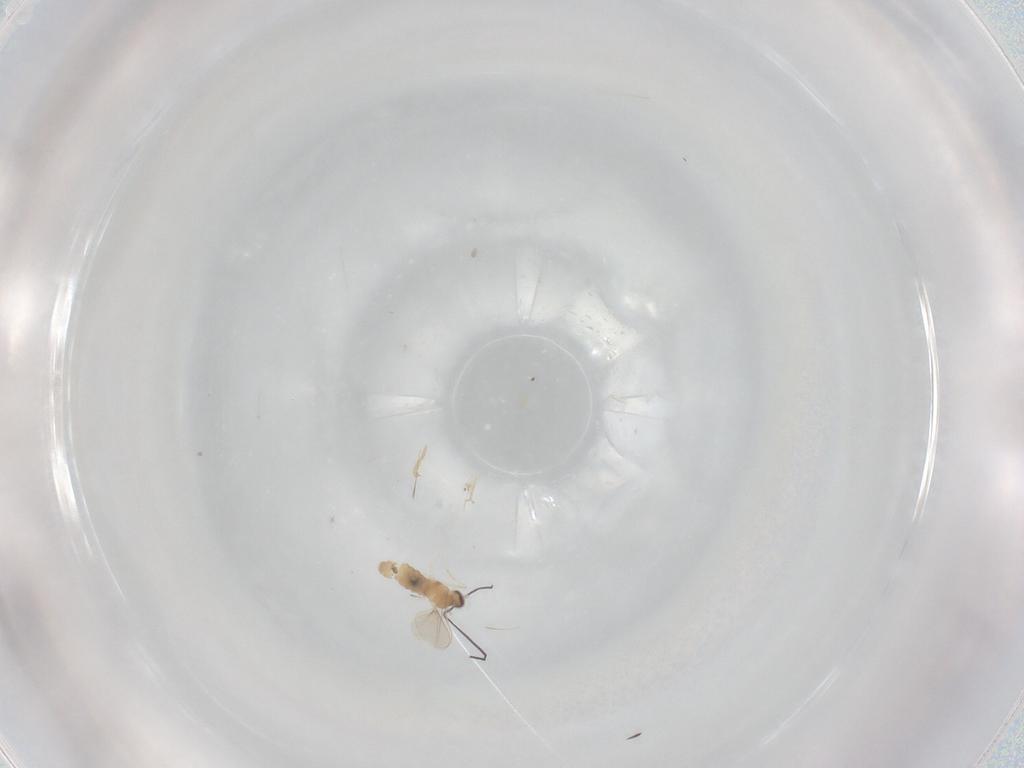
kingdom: Animalia
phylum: Arthropoda
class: Insecta
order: Diptera
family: Cecidomyiidae
